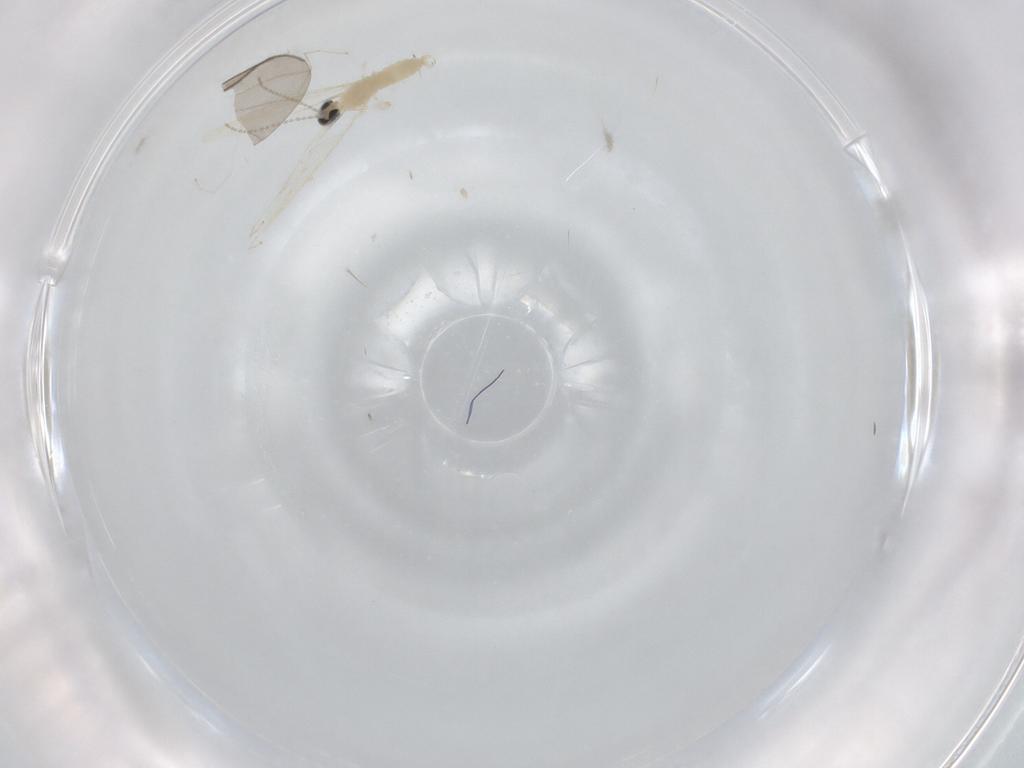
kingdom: Animalia
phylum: Arthropoda
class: Insecta
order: Diptera
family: Cecidomyiidae
